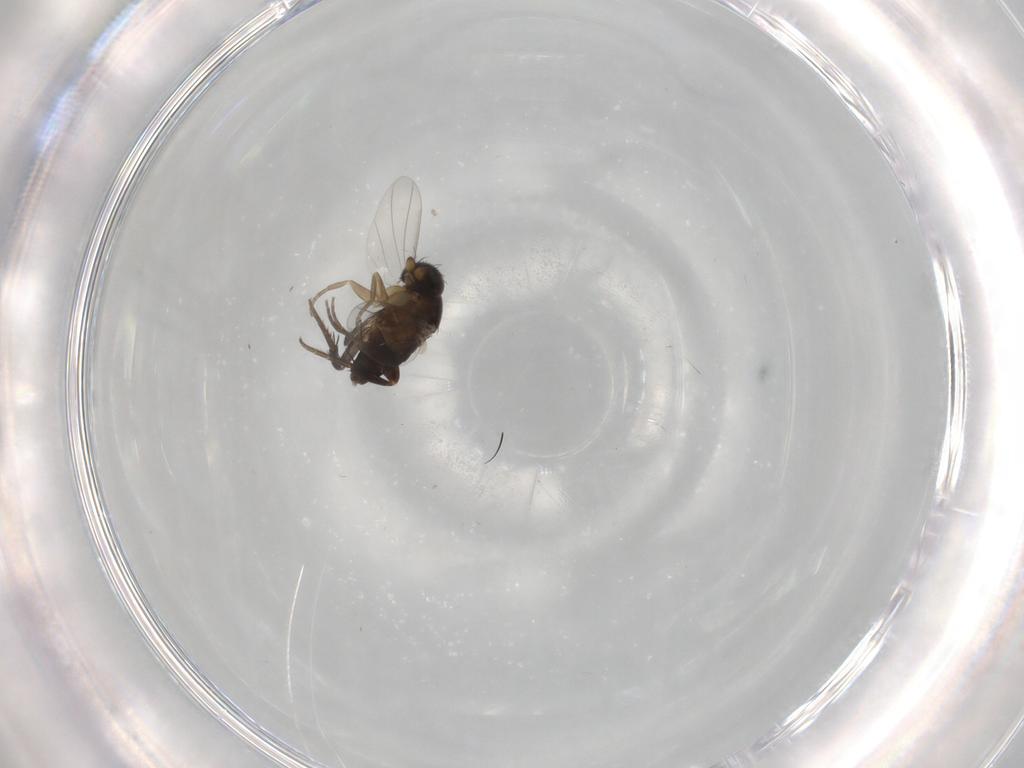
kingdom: Animalia
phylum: Arthropoda
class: Insecta
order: Diptera
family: Phoridae
